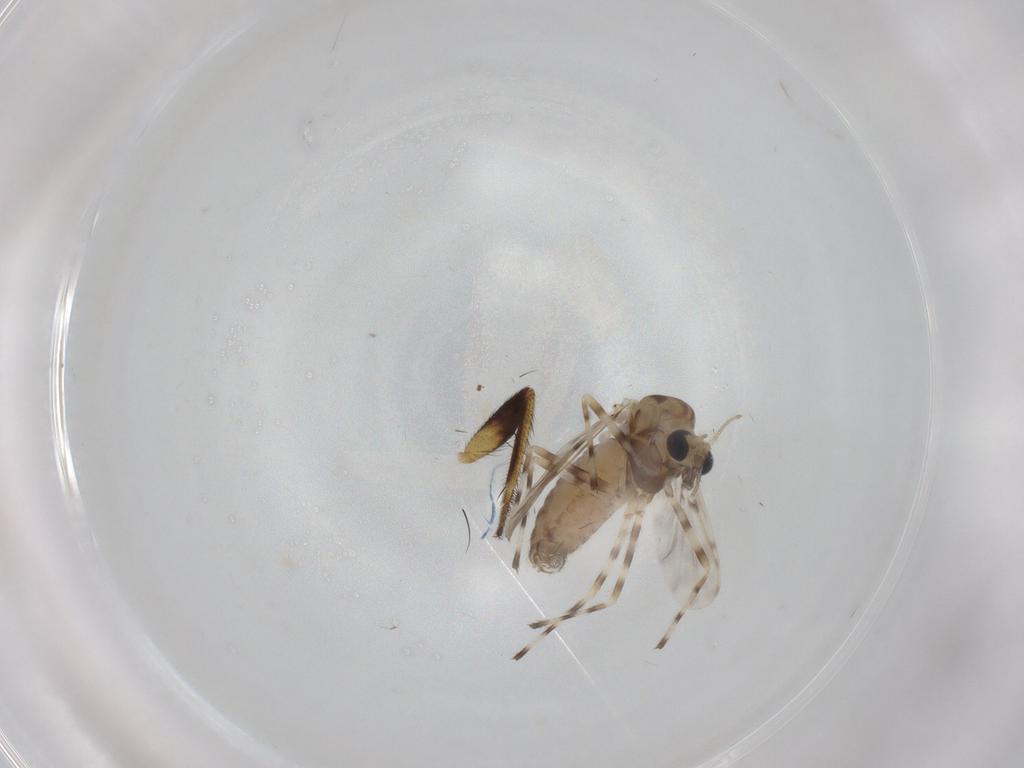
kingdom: Animalia
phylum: Arthropoda
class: Insecta
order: Diptera
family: Chironomidae
